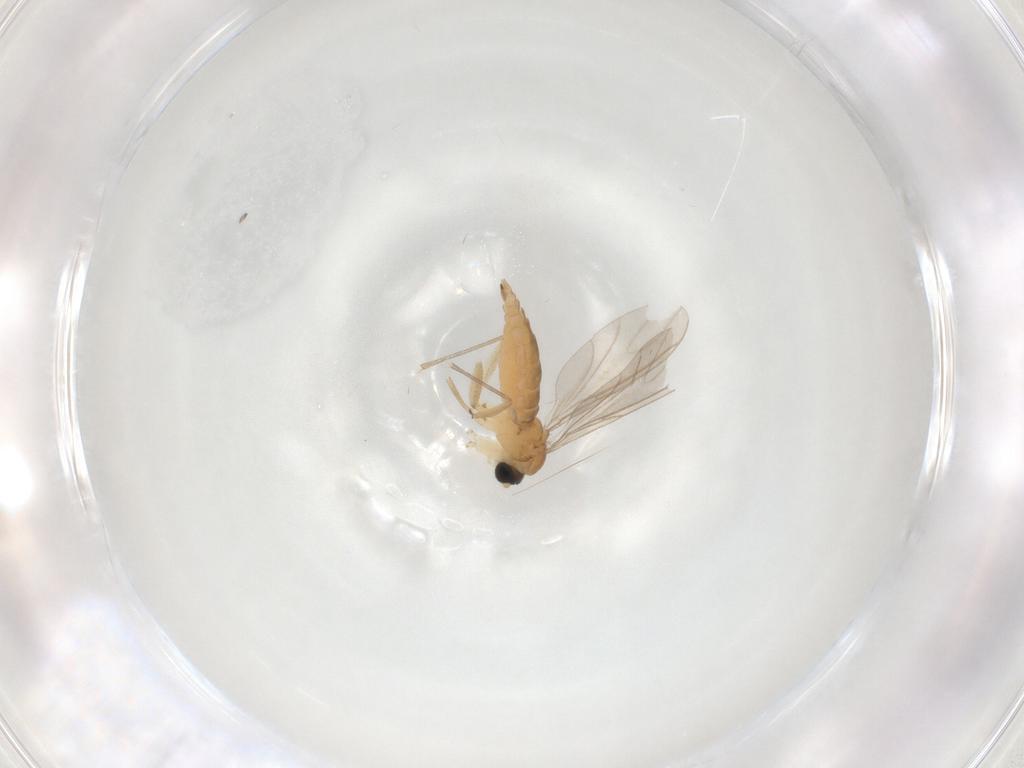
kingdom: Animalia
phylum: Arthropoda
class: Insecta
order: Diptera
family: Sciaridae
